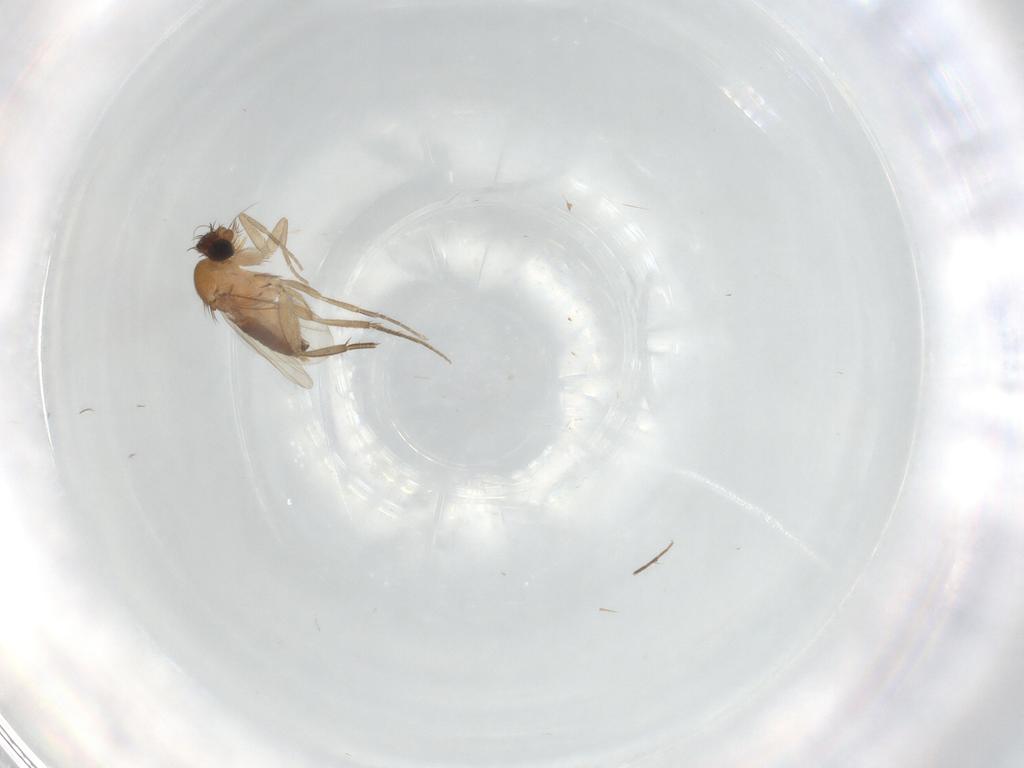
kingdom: Animalia
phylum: Arthropoda
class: Insecta
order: Diptera
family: Phoridae
